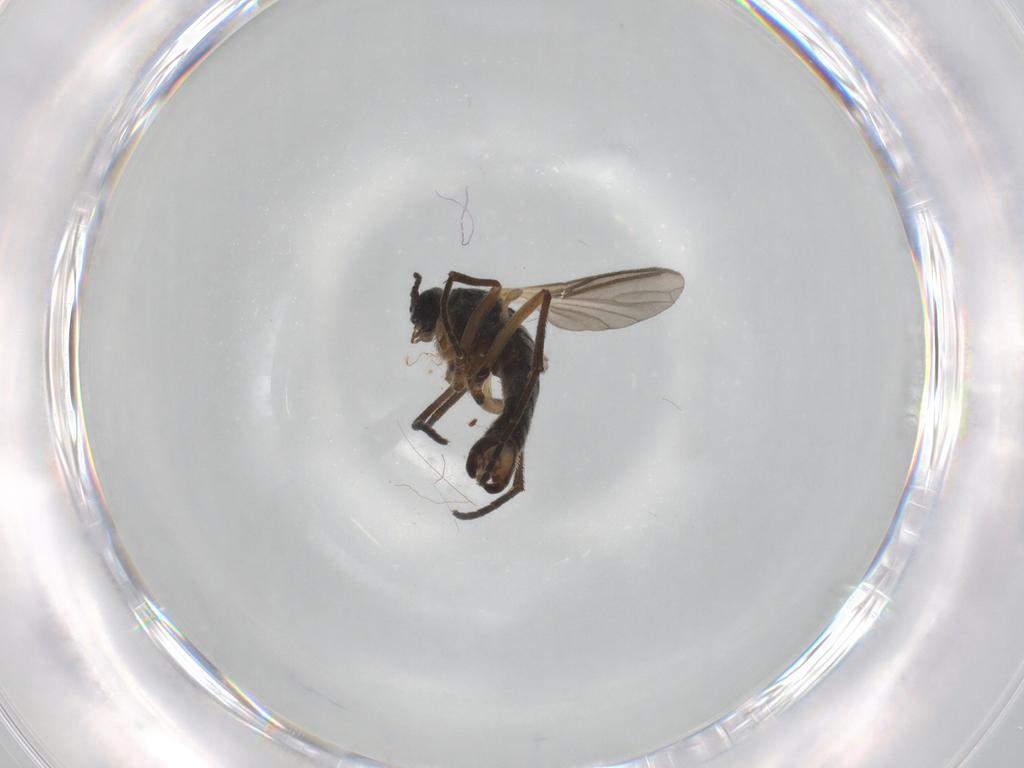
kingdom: Animalia
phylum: Arthropoda
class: Insecta
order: Diptera
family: Sciaridae
